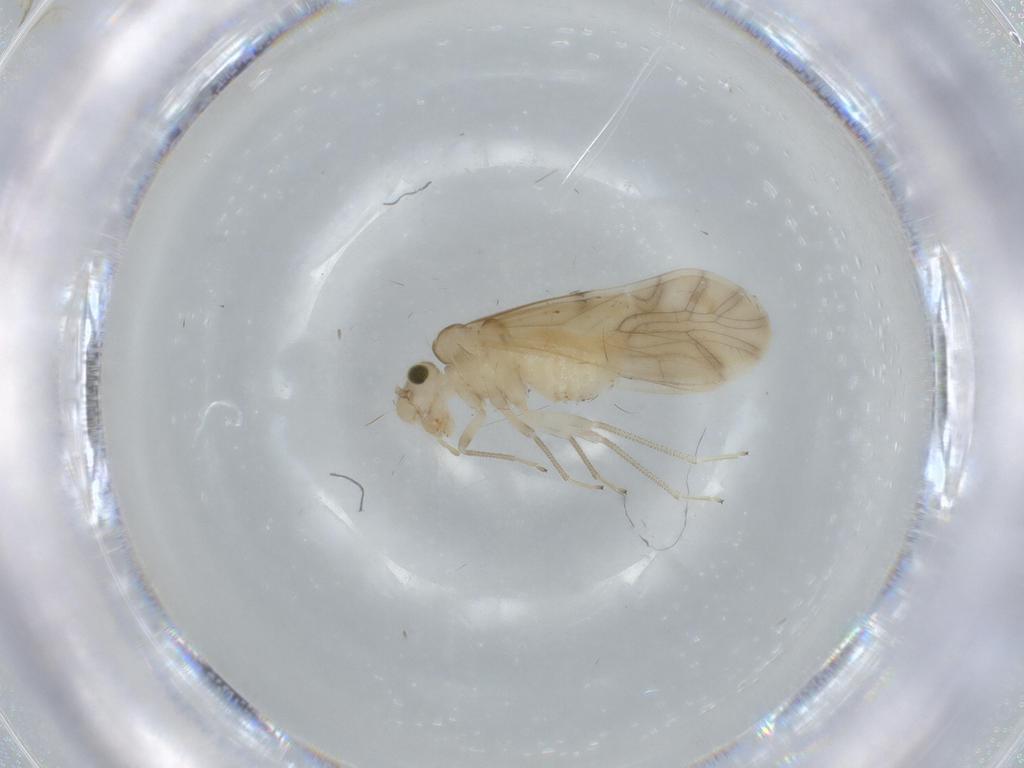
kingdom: Animalia
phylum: Arthropoda
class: Insecta
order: Psocodea
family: Caeciliusidae
